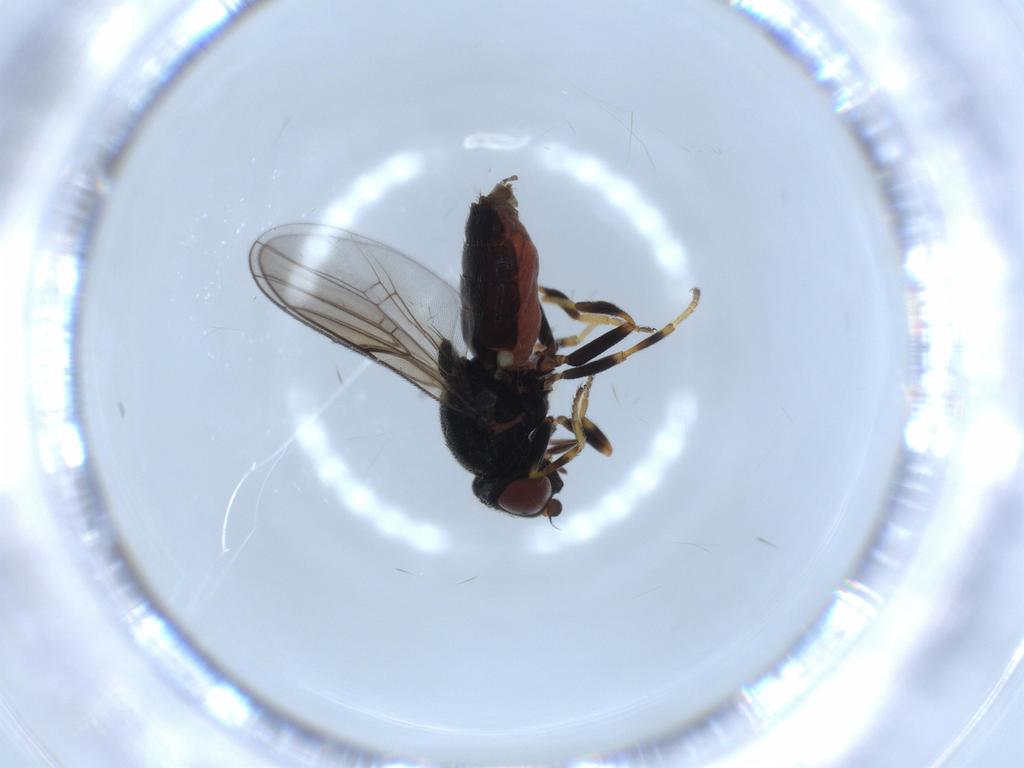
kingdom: Animalia
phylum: Arthropoda
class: Insecta
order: Diptera
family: Chloropidae
